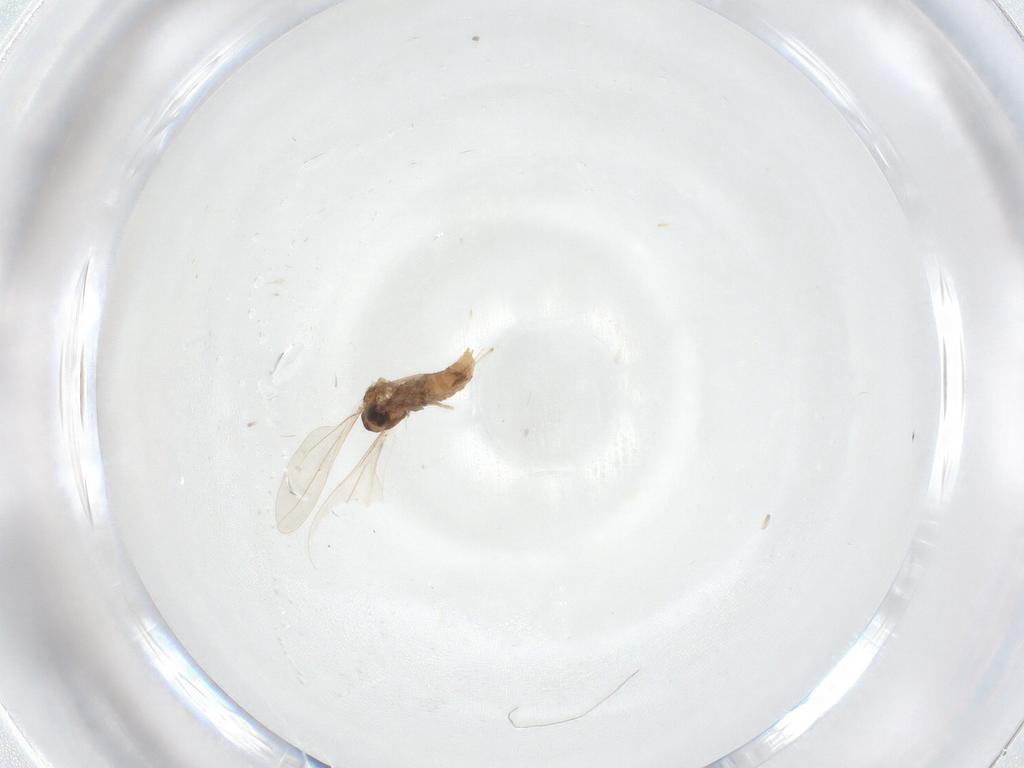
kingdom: Animalia
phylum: Arthropoda
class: Insecta
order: Diptera
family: Cecidomyiidae
